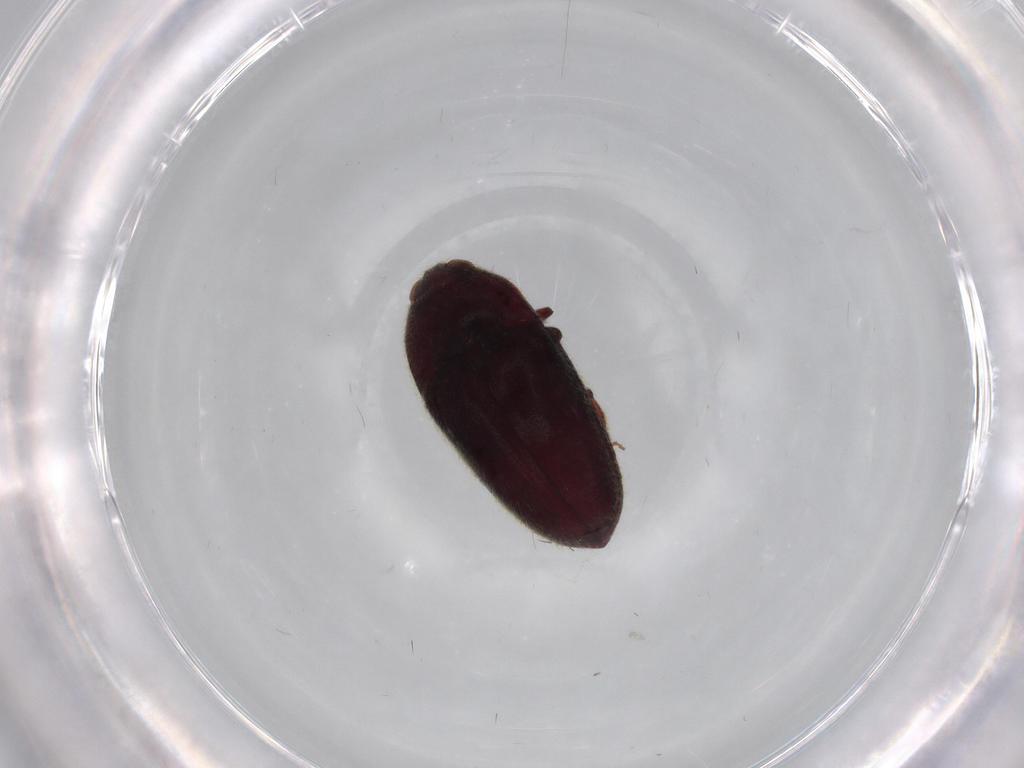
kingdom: Animalia
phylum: Arthropoda
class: Insecta
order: Coleoptera
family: Throscidae
